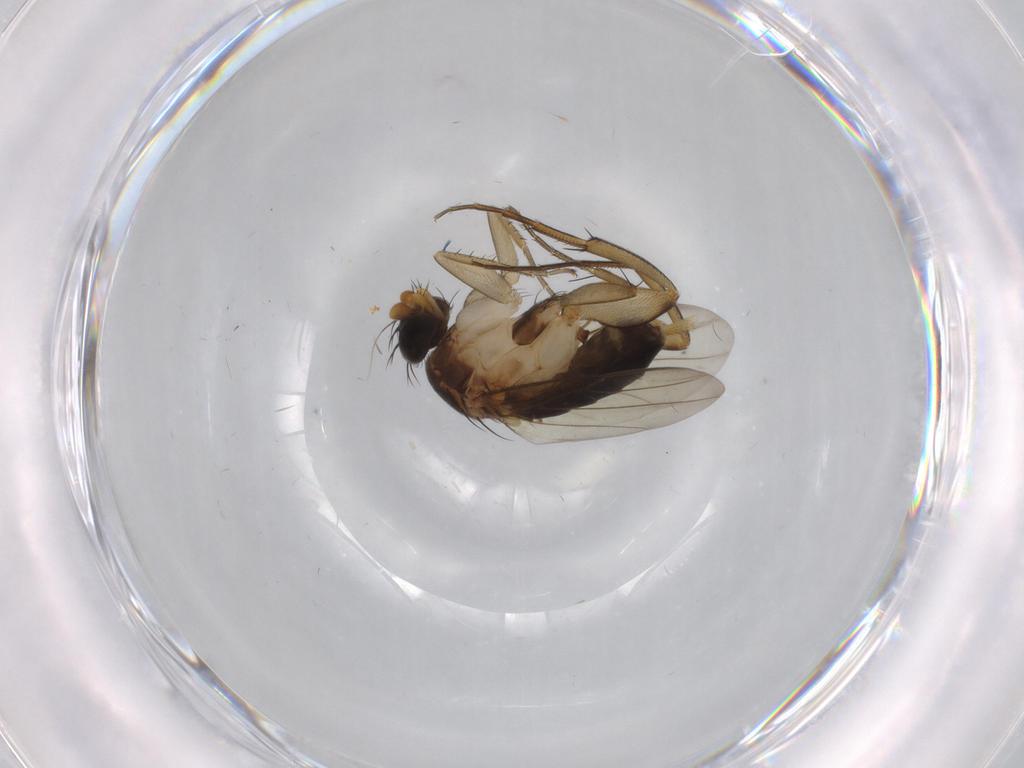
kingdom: Animalia
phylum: Arthropoda
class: Insecta
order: Diptera
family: Phoridae
